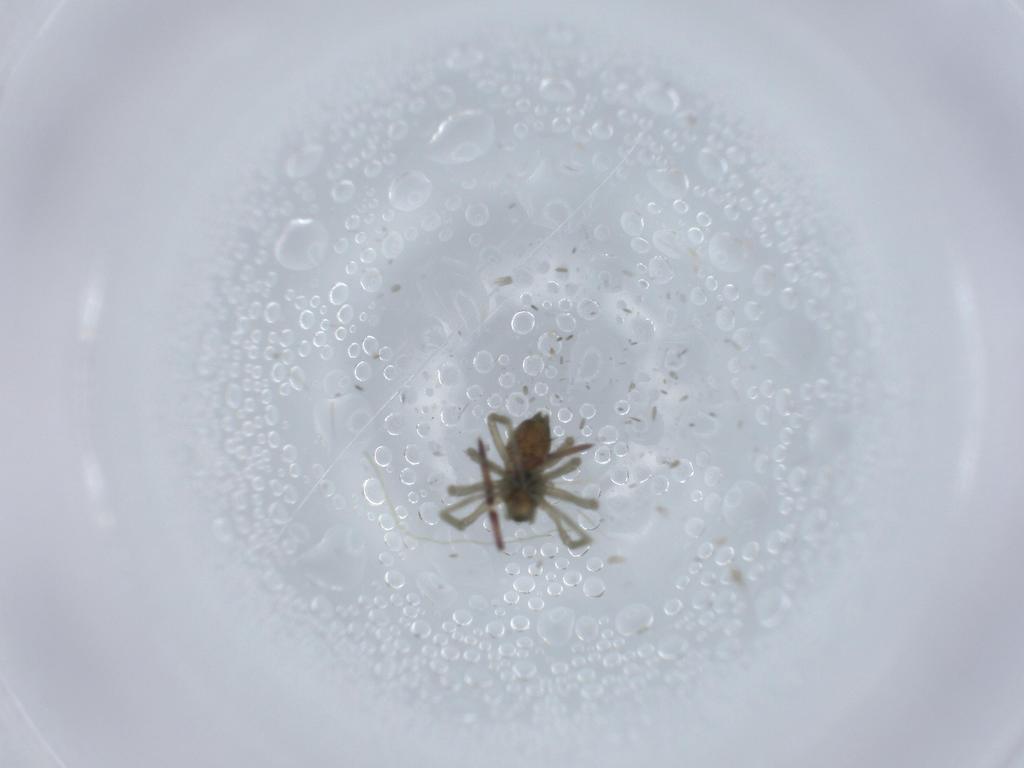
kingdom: Animalia
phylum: Arthropoda
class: Arachnida
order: Araneae
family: Linyphiidae
